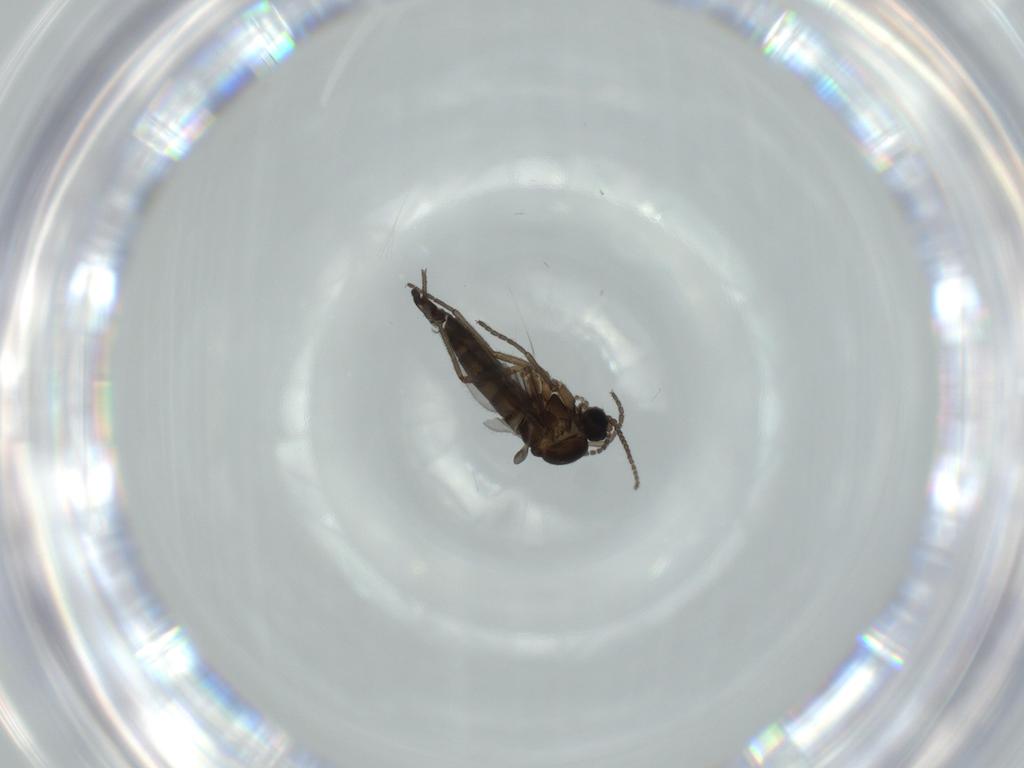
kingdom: Animalia
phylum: Arthropoda
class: Insecta
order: Diptera
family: Sciaridae
